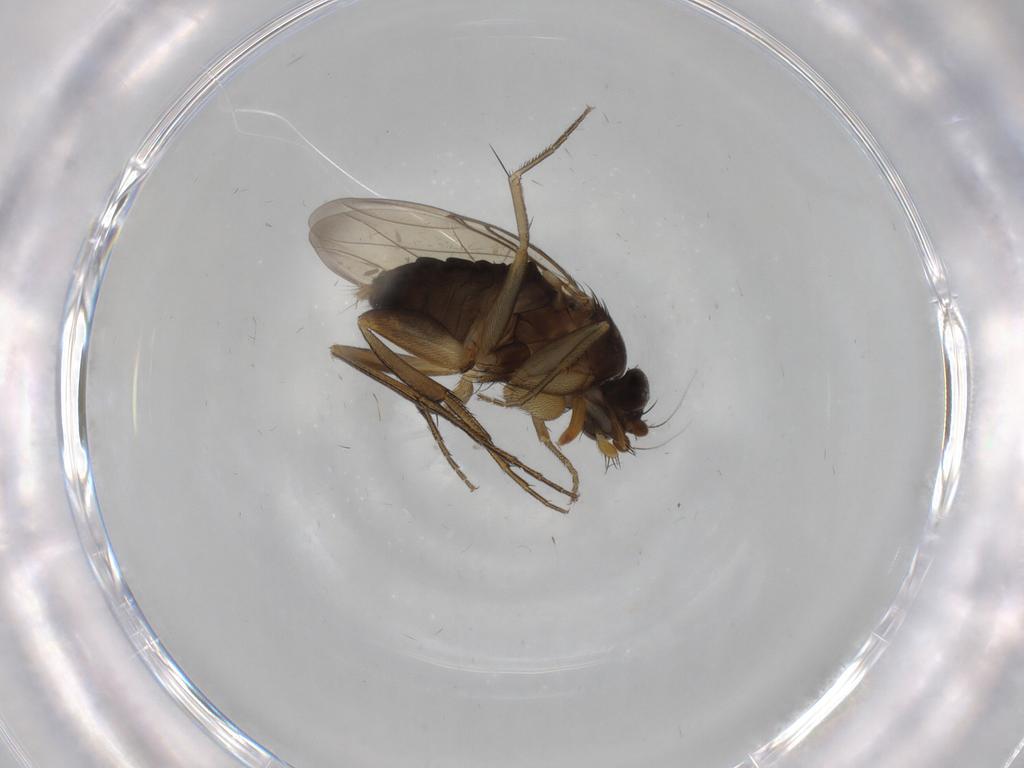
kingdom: Animalia
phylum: Arthropoda
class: Insecta
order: Diptera
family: Phoridae
